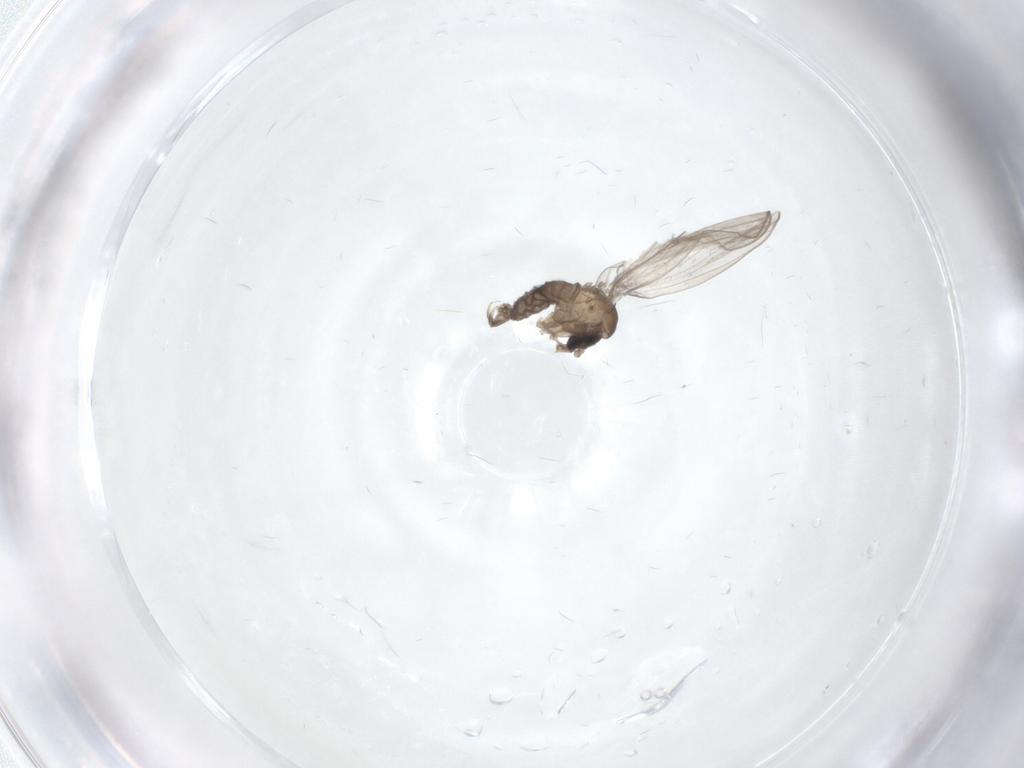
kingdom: Animalia
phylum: Arthropoda
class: Insecta
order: Diptera
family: Psychodidae
